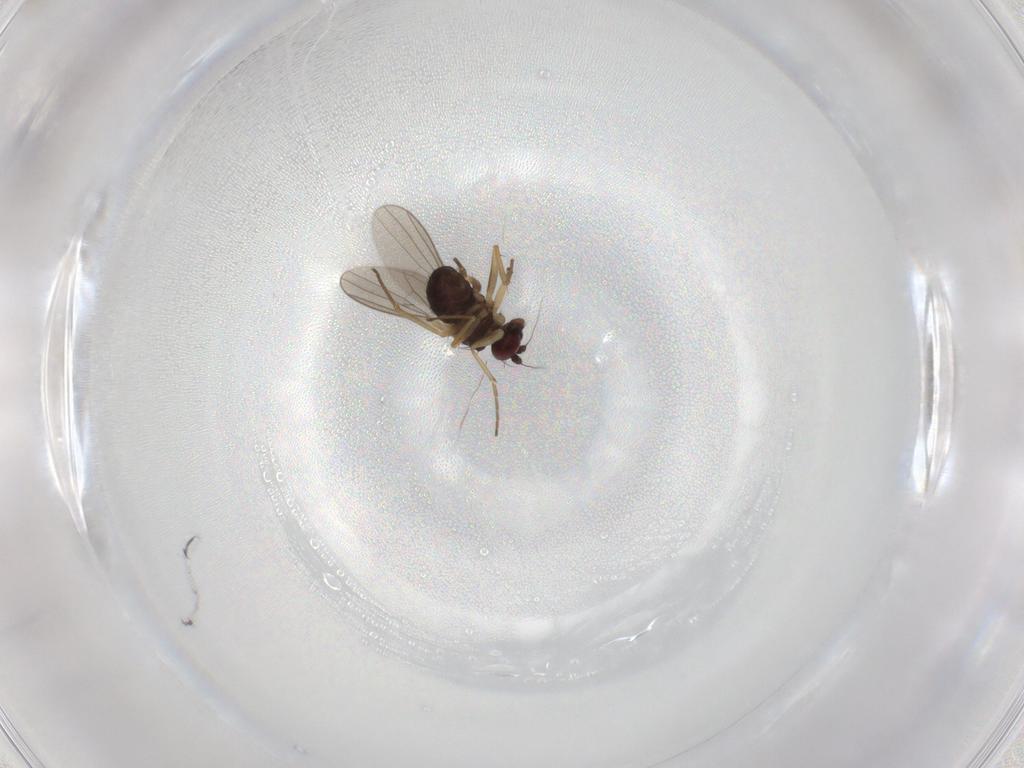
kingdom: Animalia
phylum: Arthropoda
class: Insecta
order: Diptera
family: Dolichopodidae
